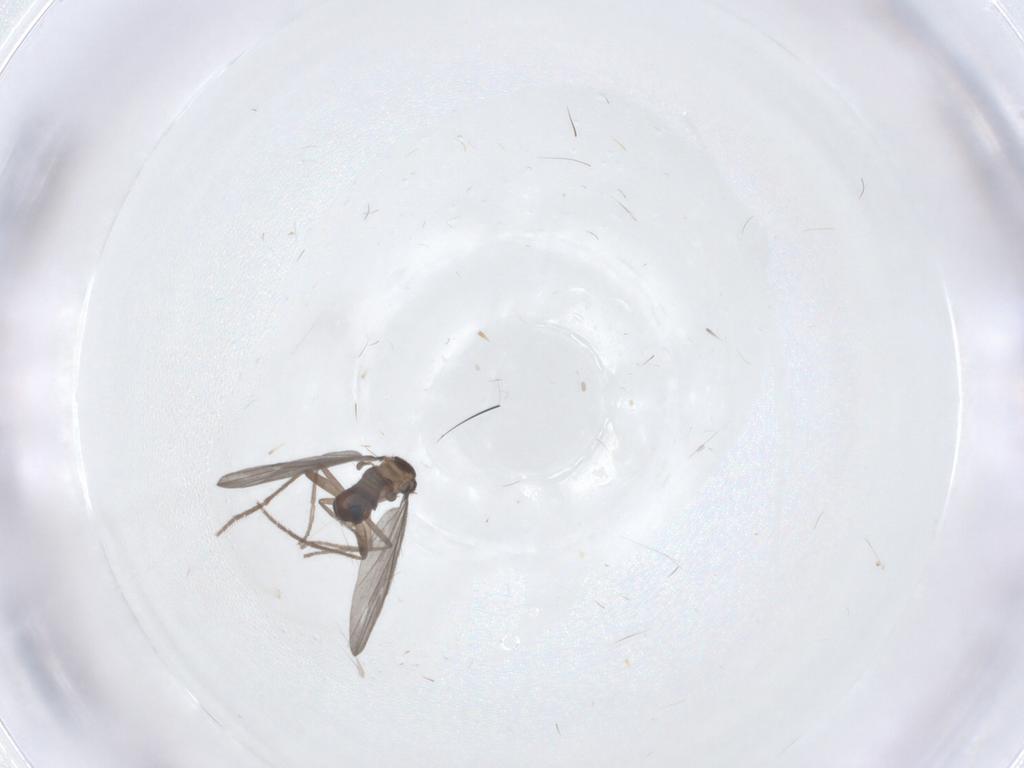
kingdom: Animalia
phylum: Arthropoda
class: Insecta
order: Diptera
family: Phoridae
